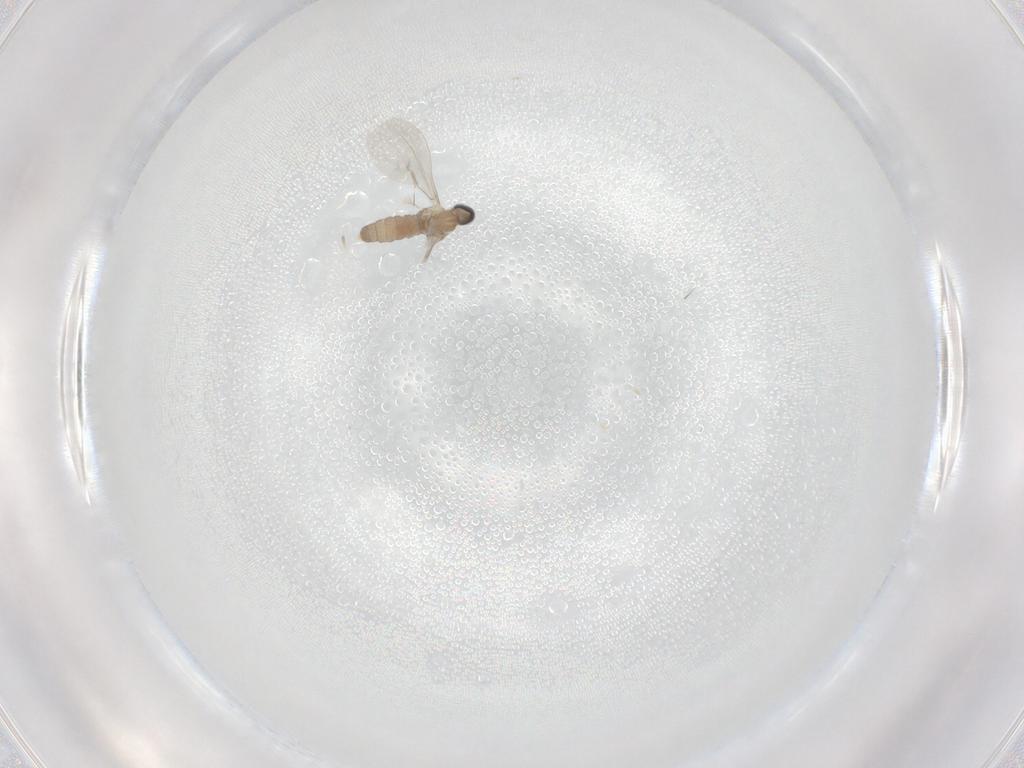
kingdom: Animalia
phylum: Arthropoda
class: Insecta
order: Diptera
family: Cecidomyiidae
